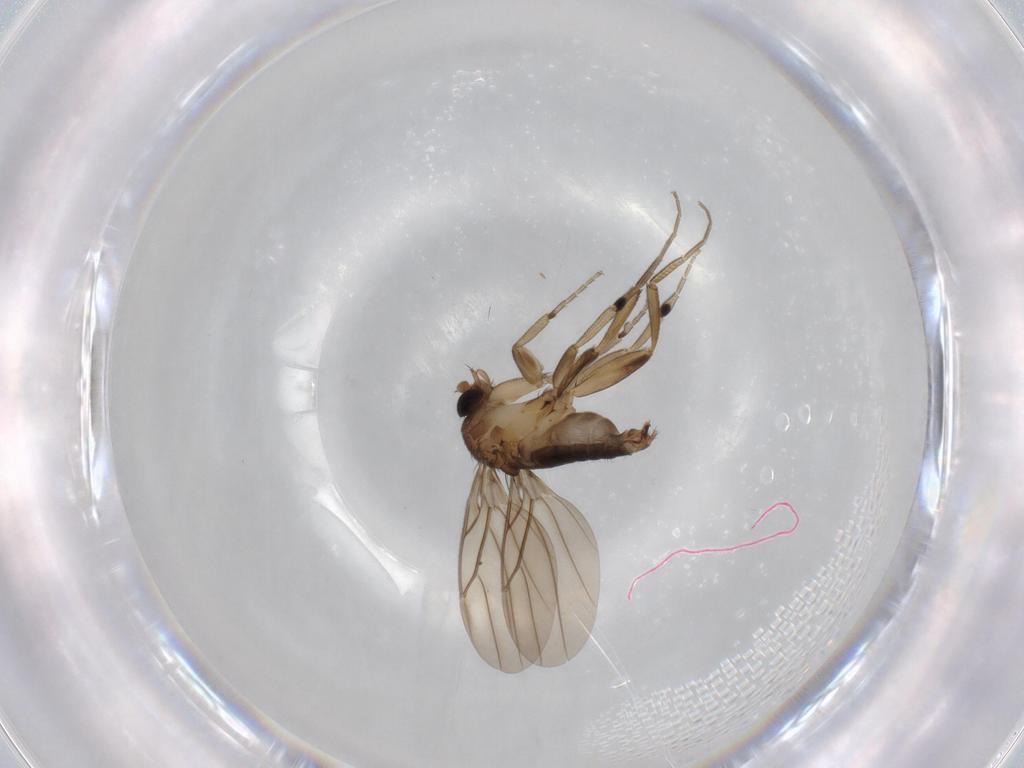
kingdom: Animalia
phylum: Arthropoda
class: Insecta
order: Diptera
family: Phoridae
